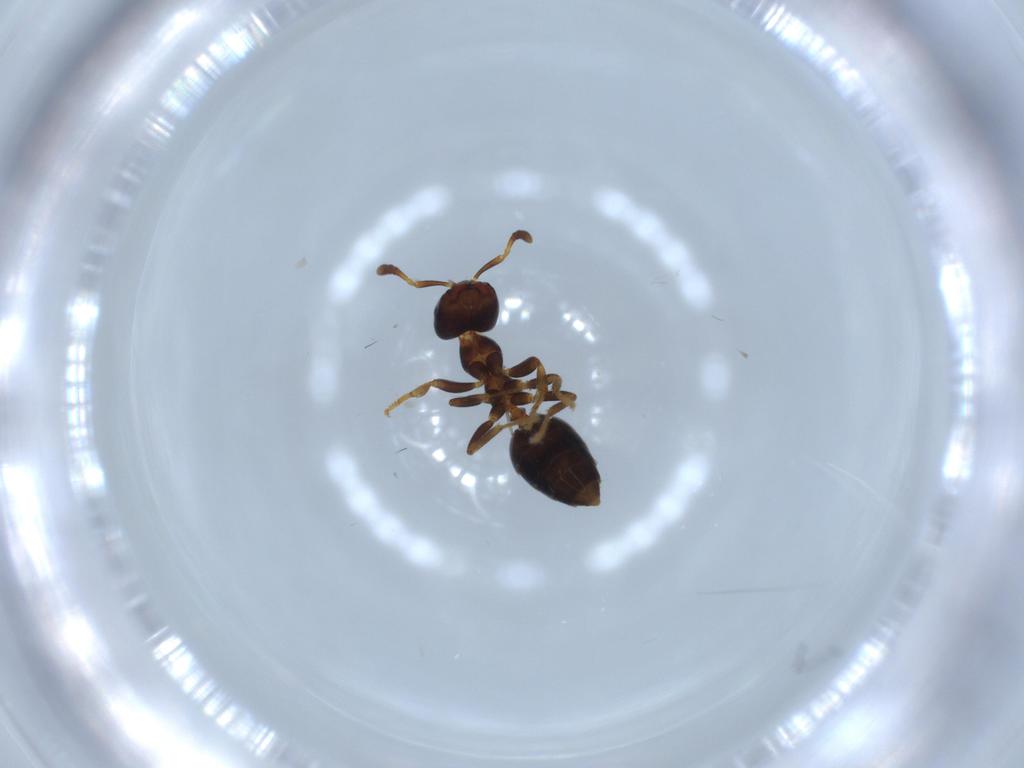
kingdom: Animalia
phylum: Arthropoda
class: Insecta
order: Hymenoptera
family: Formicidae
